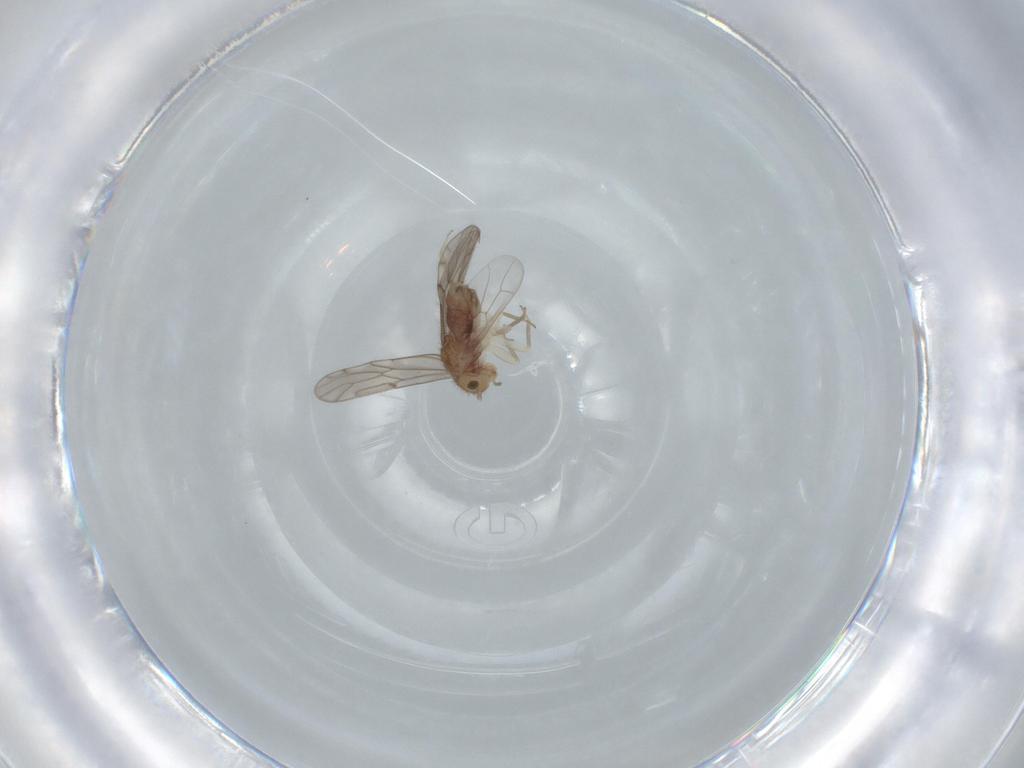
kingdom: Animalia
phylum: Arthropoda
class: Insecta
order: Psocodea
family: Ectopsocidae
